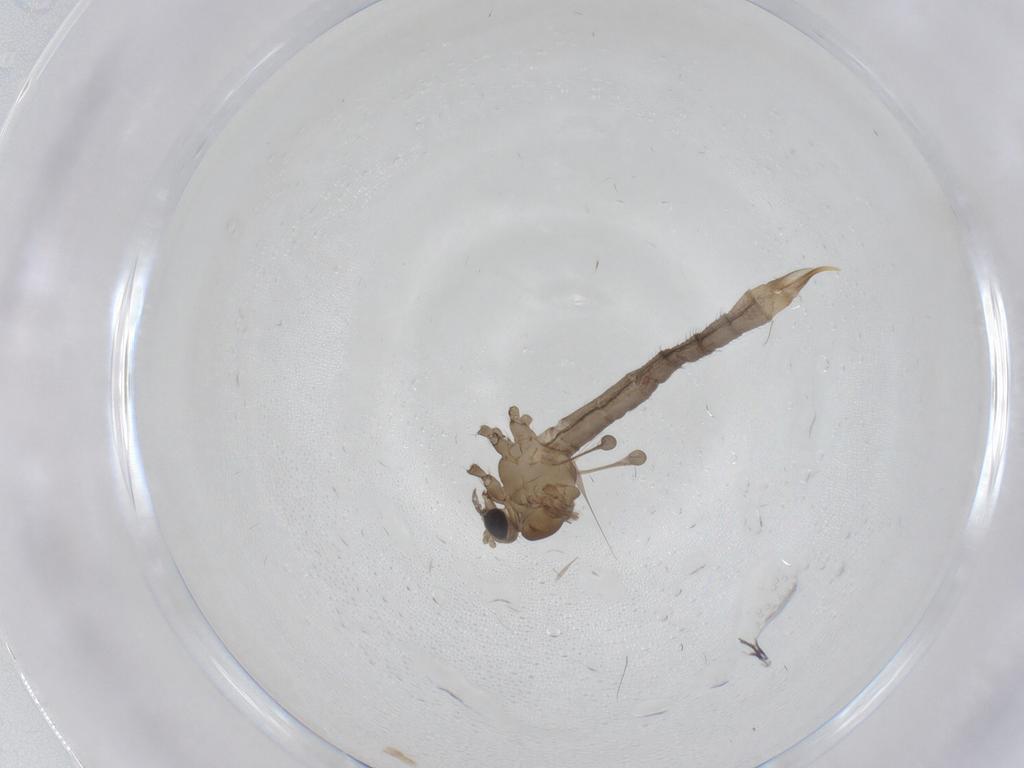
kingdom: Animalia
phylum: Arthropoda
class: Insecta
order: Diptera
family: Limoniidae
